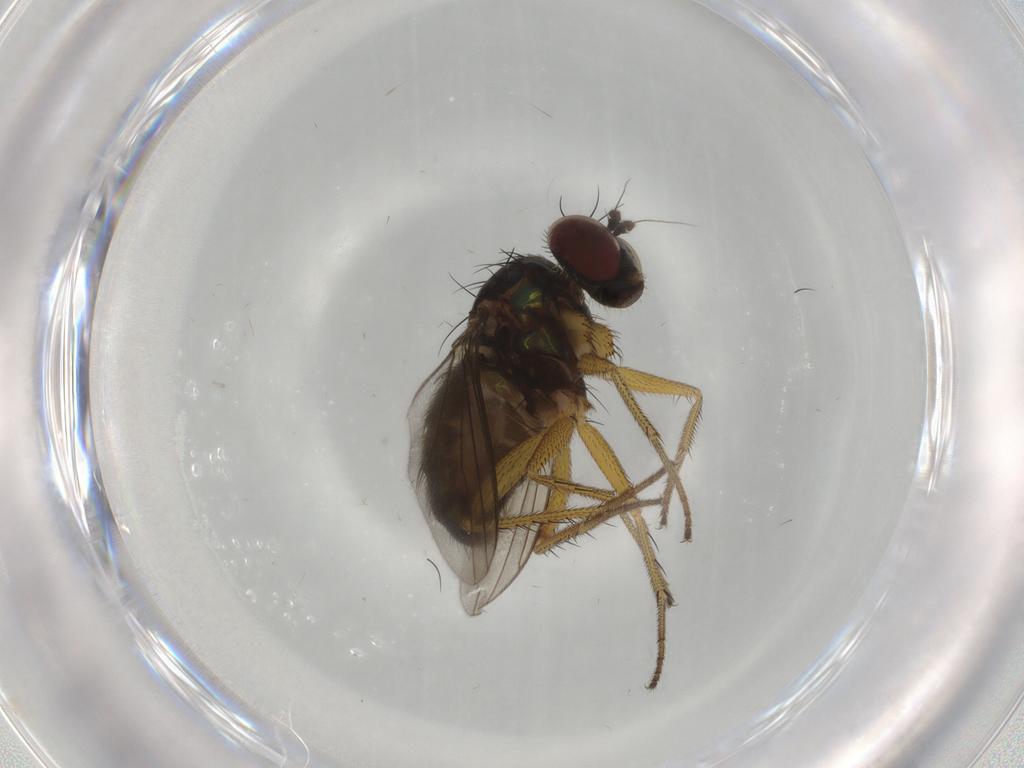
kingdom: Animalia
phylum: Arthropoda
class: Insecta
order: Diptera
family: Dolichopodidae
